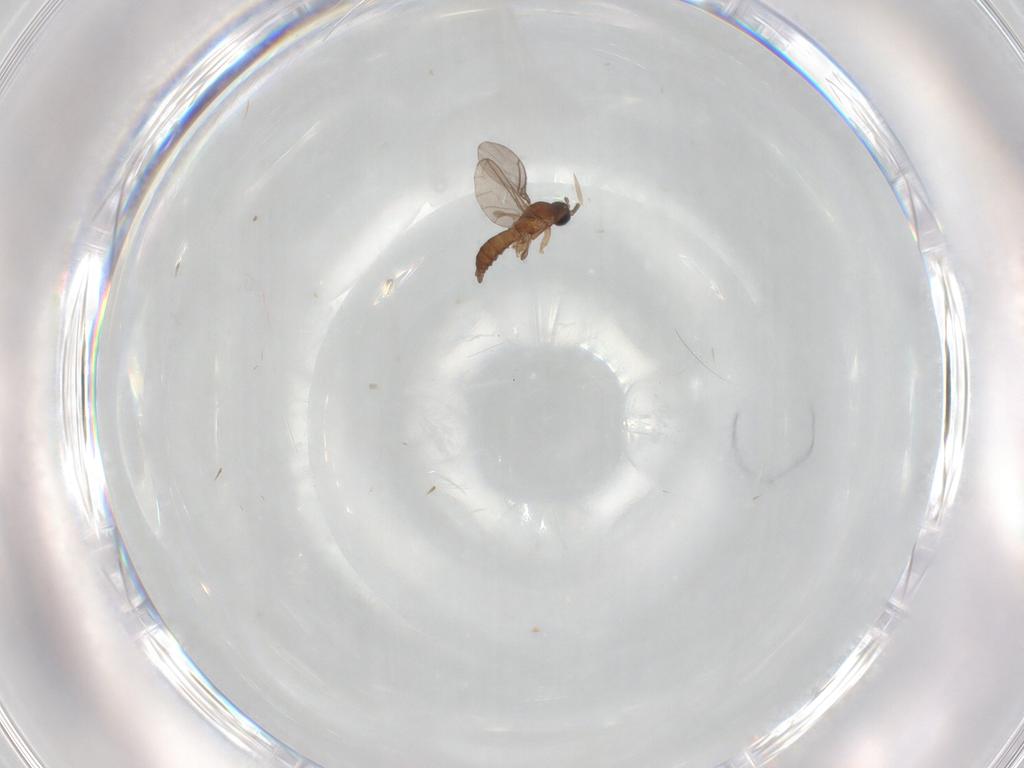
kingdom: Animalia
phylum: Arthropoda
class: Insecta
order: Diptera
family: Sciaridae
